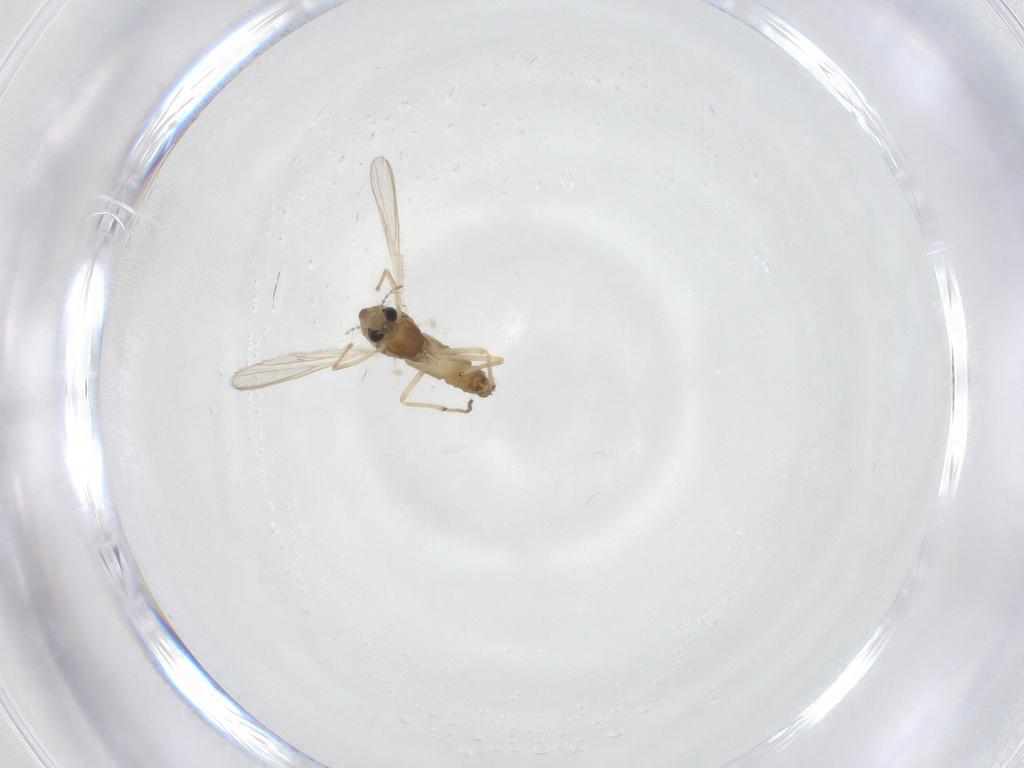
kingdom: Animalia
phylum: Arthropoda
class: Insecta
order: Diptera
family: Chironomidae
